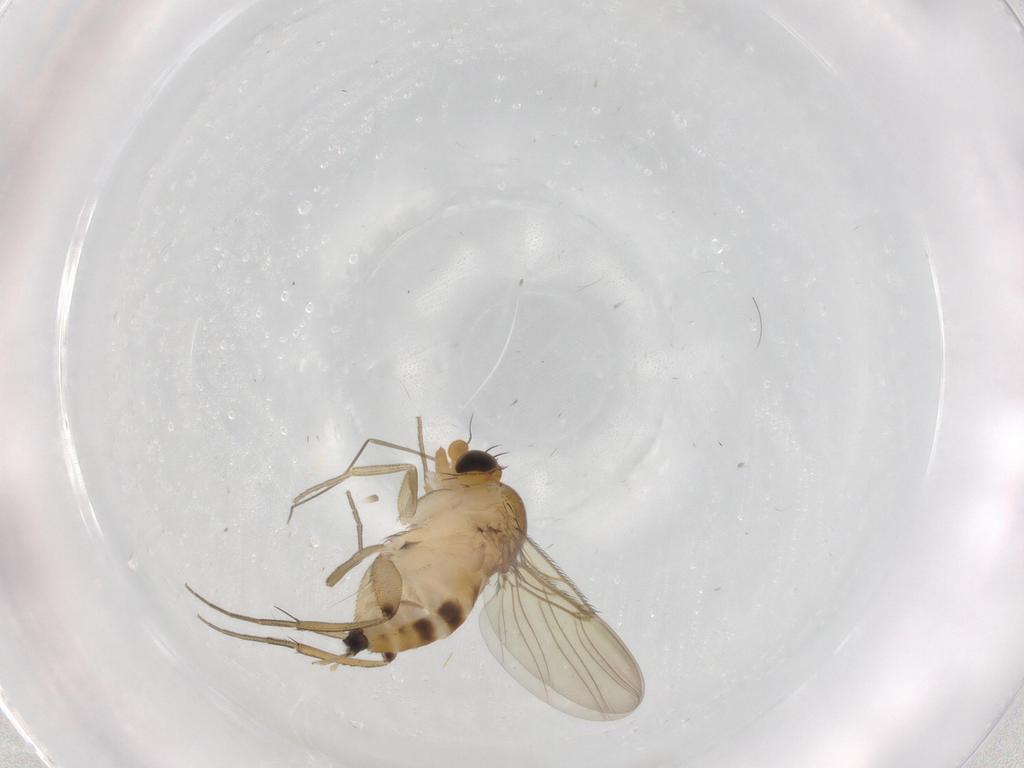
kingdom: Animalia
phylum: Arthropoda
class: Insecta
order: Diptera
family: Phoridae
